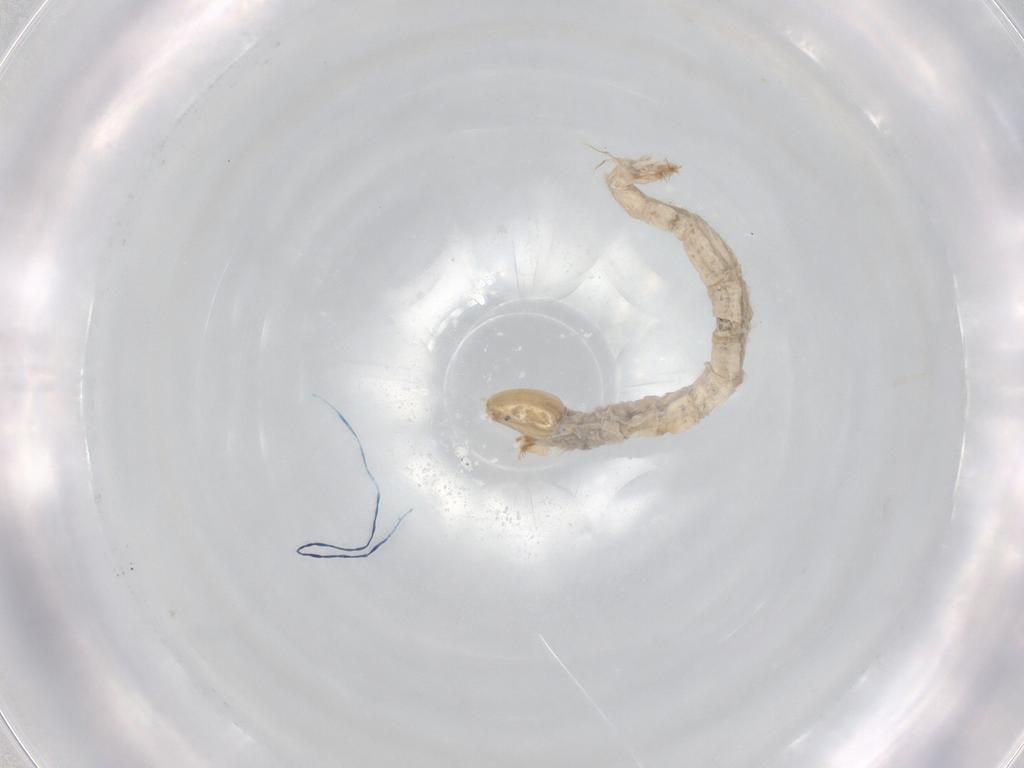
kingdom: Animalia
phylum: Arthropoda
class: Insecta
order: Diptera
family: Chironomidae
